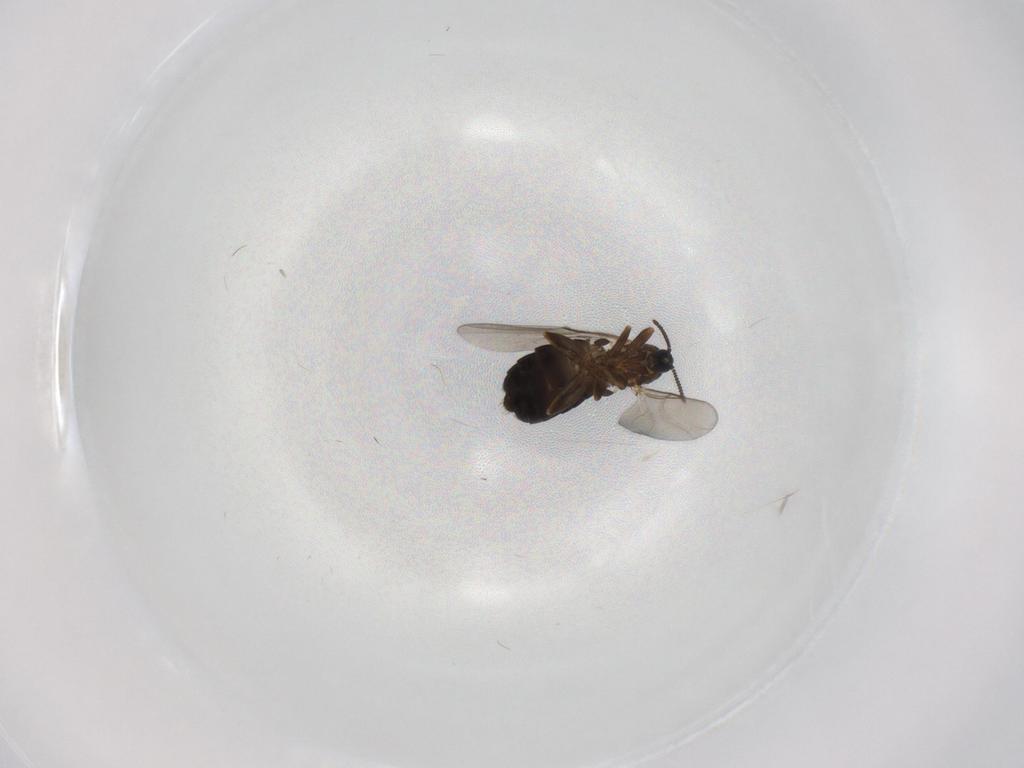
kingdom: Animalia
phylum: Arthropoda
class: Insecta
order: Diptera
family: Scatopsidae
